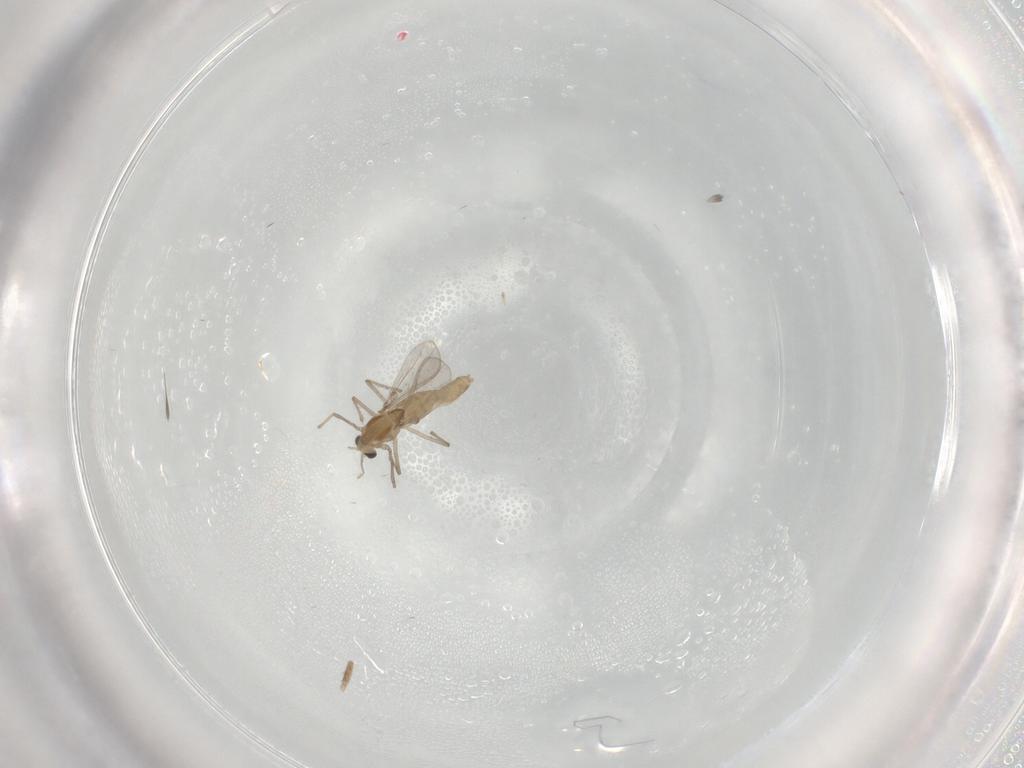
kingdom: Animalia
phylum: Arthropoda
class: Insecta
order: Diptera
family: Chironomidae
